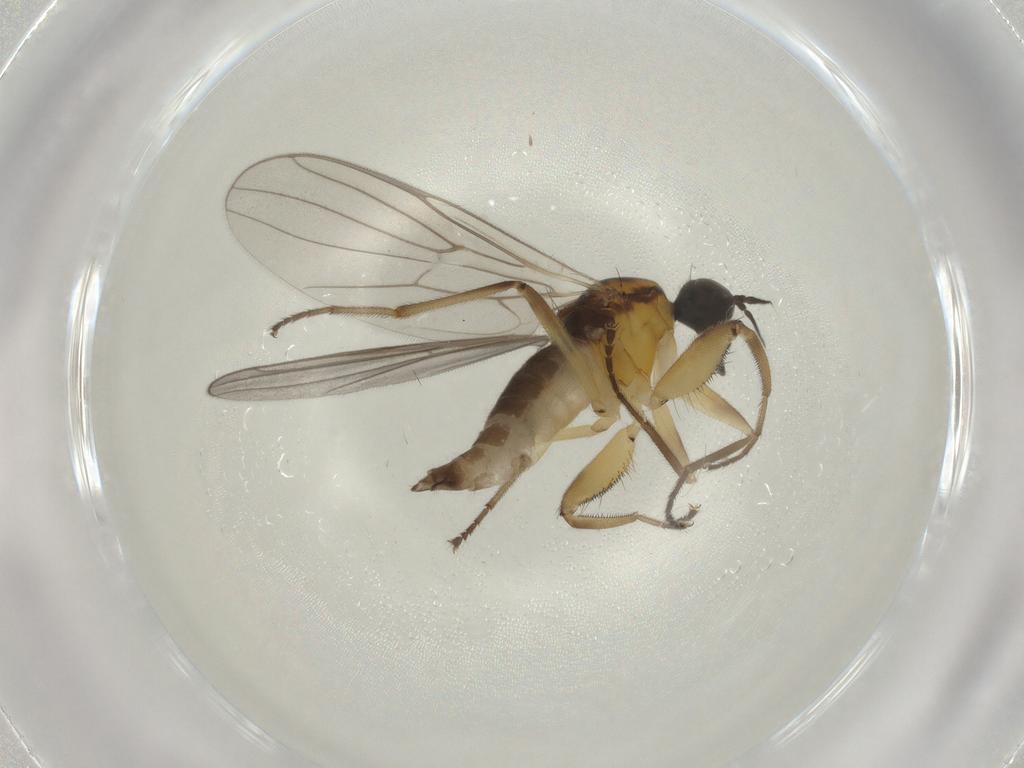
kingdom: Animalia
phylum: Arthropoda
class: Insecta
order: Diptera
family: Hybotidae
